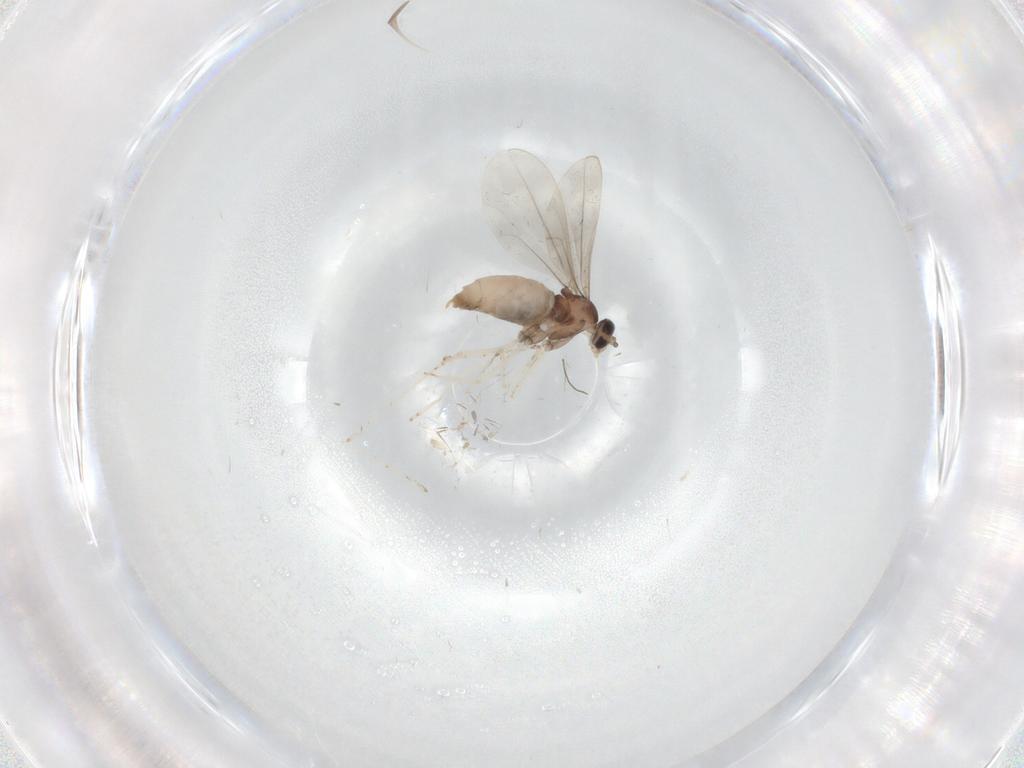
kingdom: Animalia
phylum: Arthropoda
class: Insecta
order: Diptera
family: Cecidomyiidae
